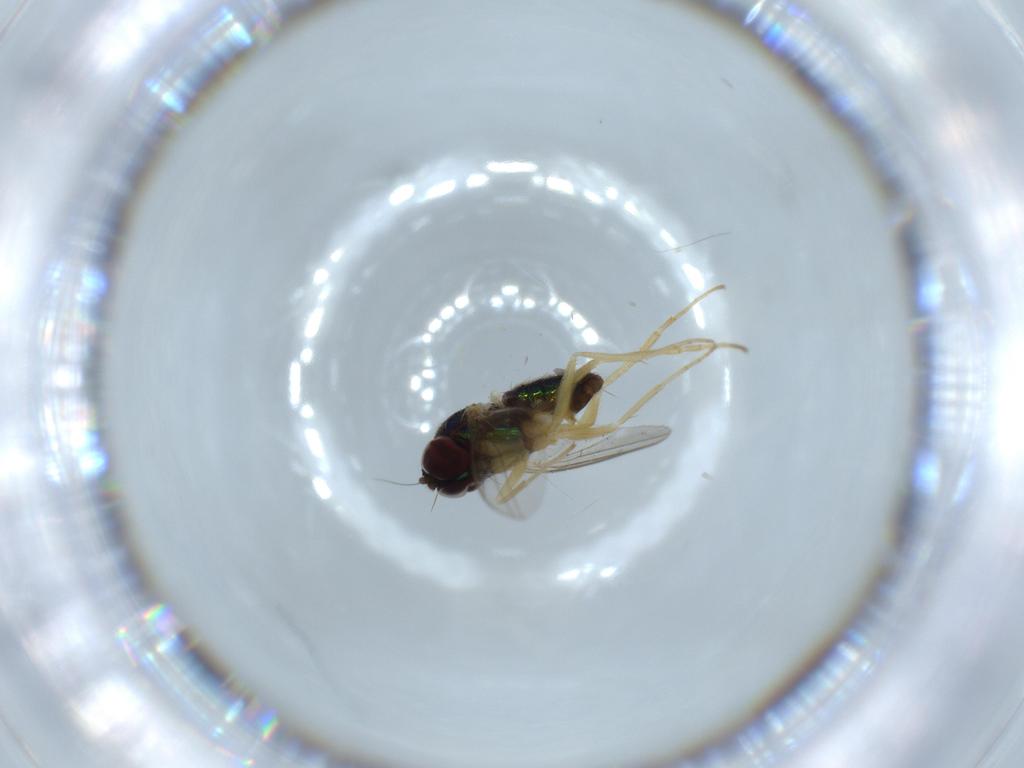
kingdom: Animalia
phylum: Arthropoda
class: Insecta
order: Diptera
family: Dolichopodidae
